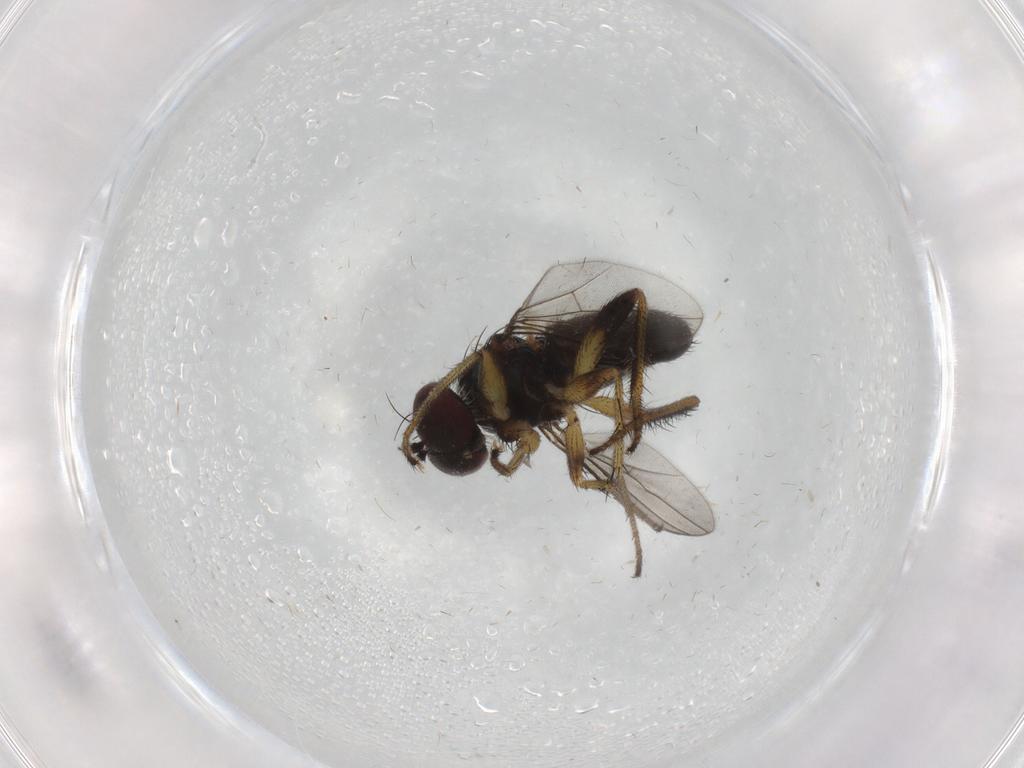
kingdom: Animalia
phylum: Arthropoda
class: Insecta
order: Diptera
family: Dolichopodidae
